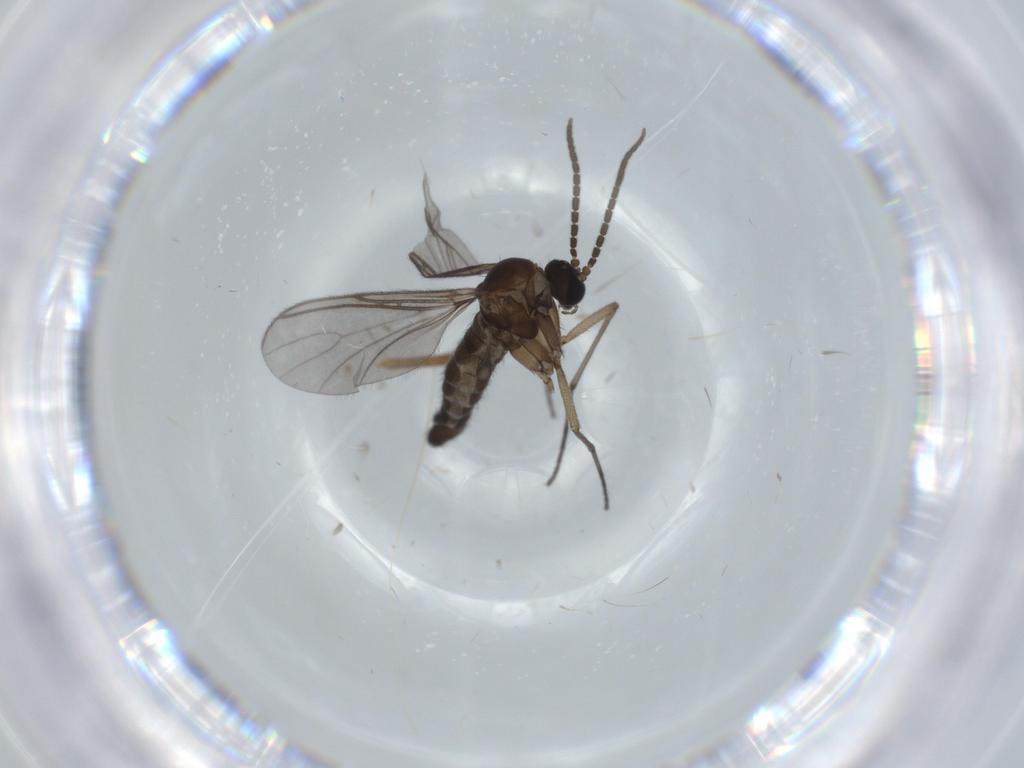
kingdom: Animalia
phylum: Arthropoda
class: Insecta
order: Diptera
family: Sciaridae
